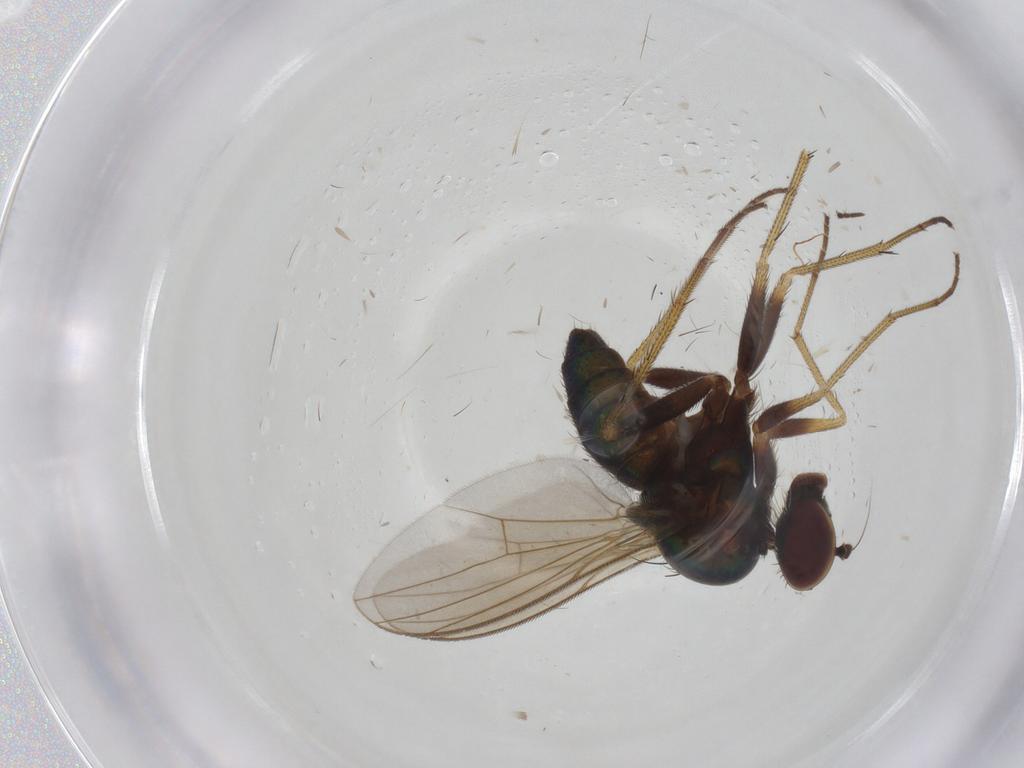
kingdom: Animalia
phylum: Arthropoda
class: Insecta
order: Diptera
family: Dolichopodidae
